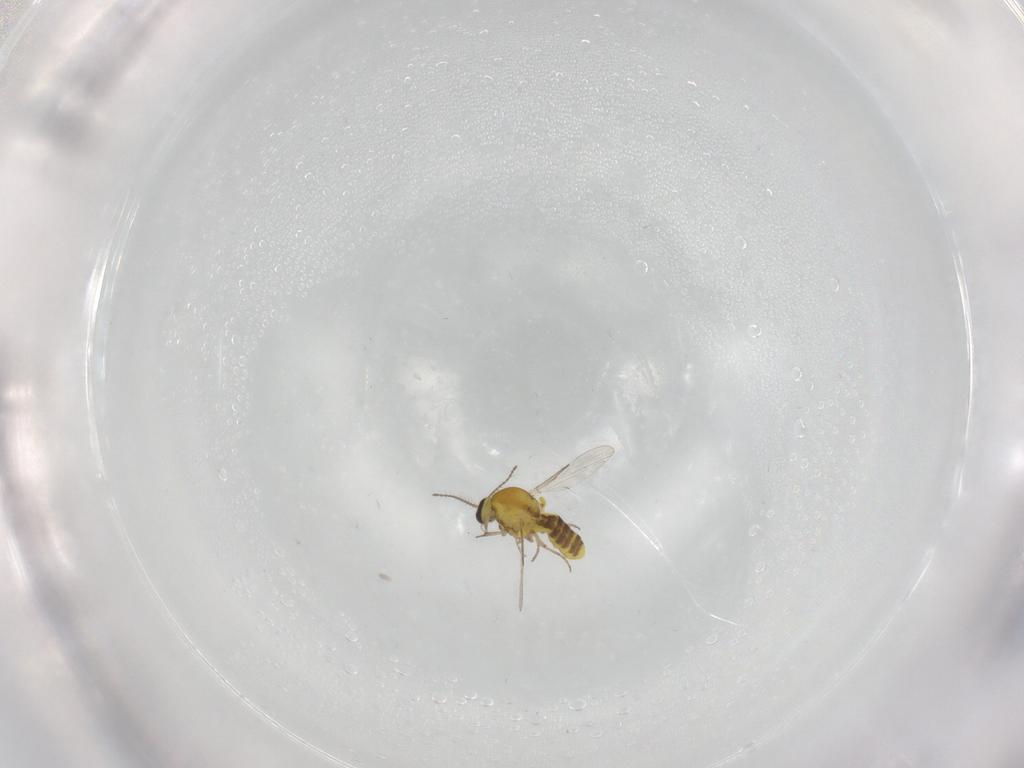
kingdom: Animalia
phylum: Arthropoda
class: Insecta
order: Diptera
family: Ceratopogonidae
